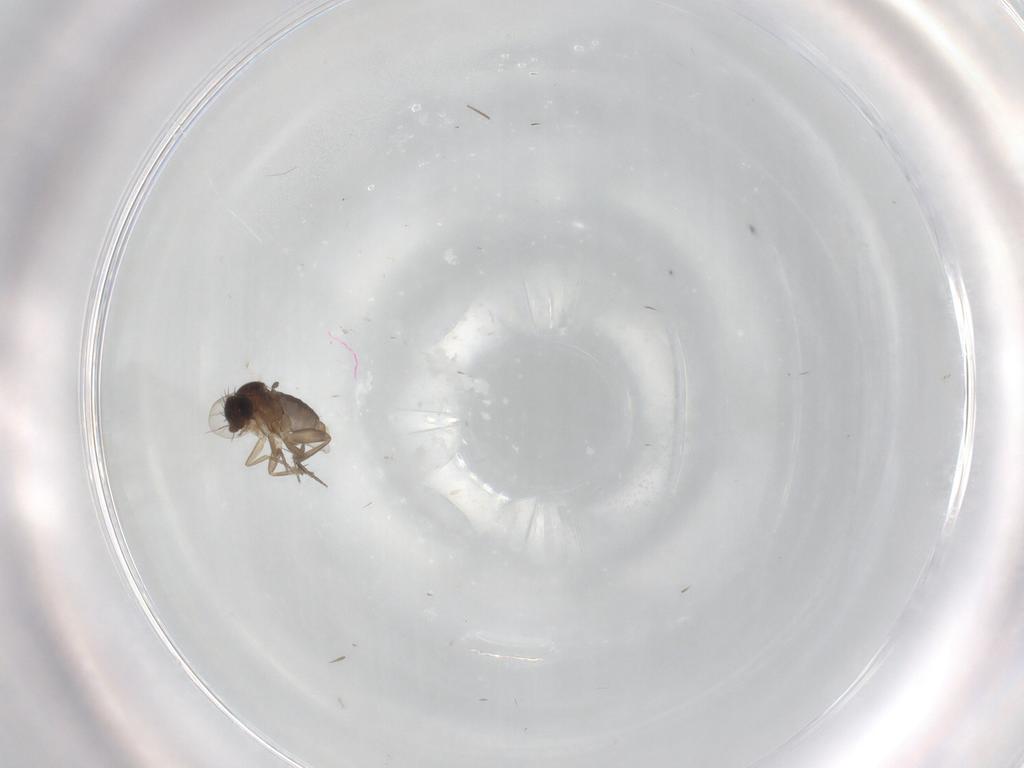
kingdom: Animalia
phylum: Arthropoda
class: Insecta
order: Diptera
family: Phoridae
